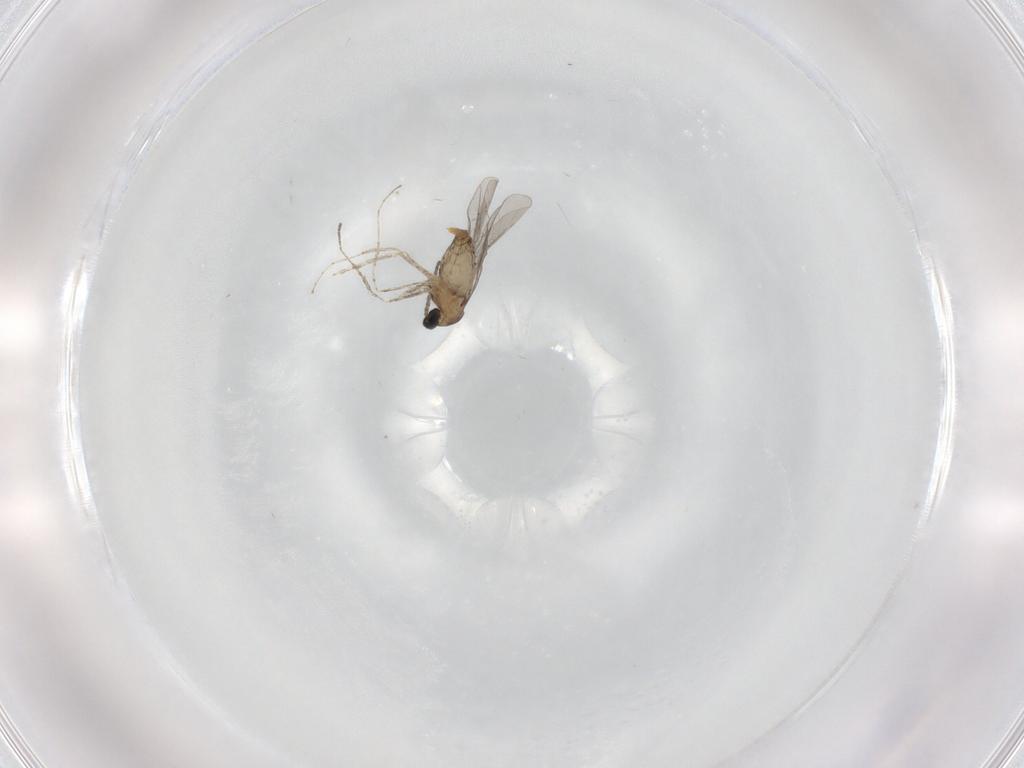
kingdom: Animalia
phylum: Arthropoda
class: Insecta
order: Diptera
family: Cecidomyiidae
